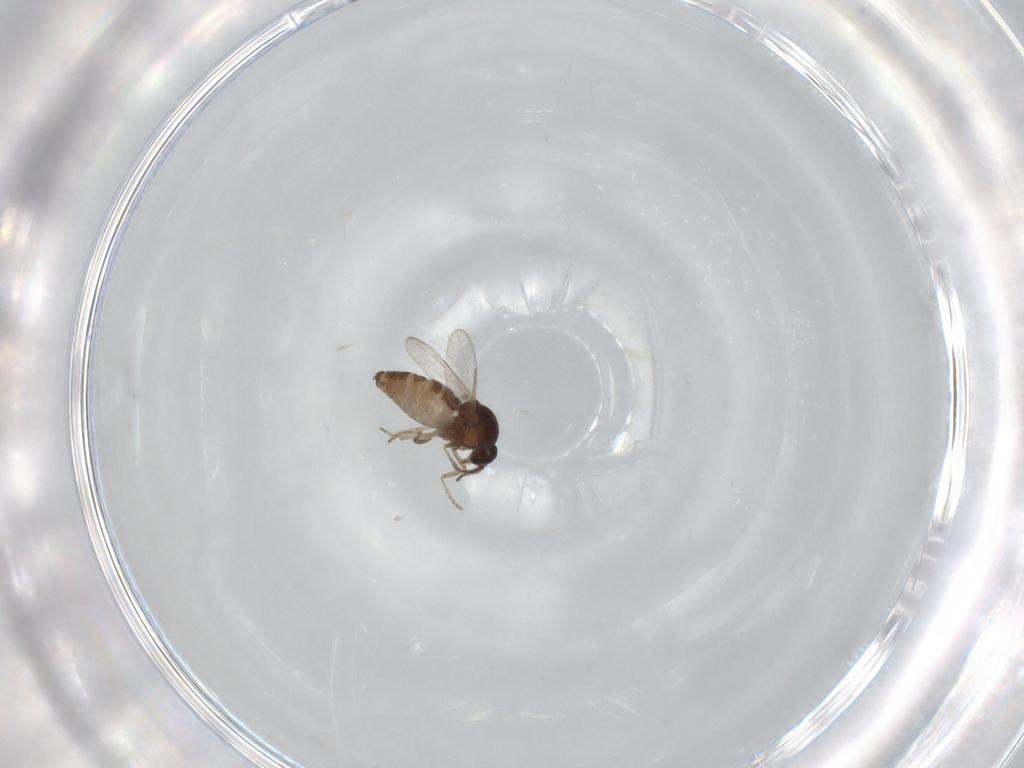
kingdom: Animalia
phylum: Arthropoda
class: Insecta
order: Diptera
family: Ceratopogonidae
